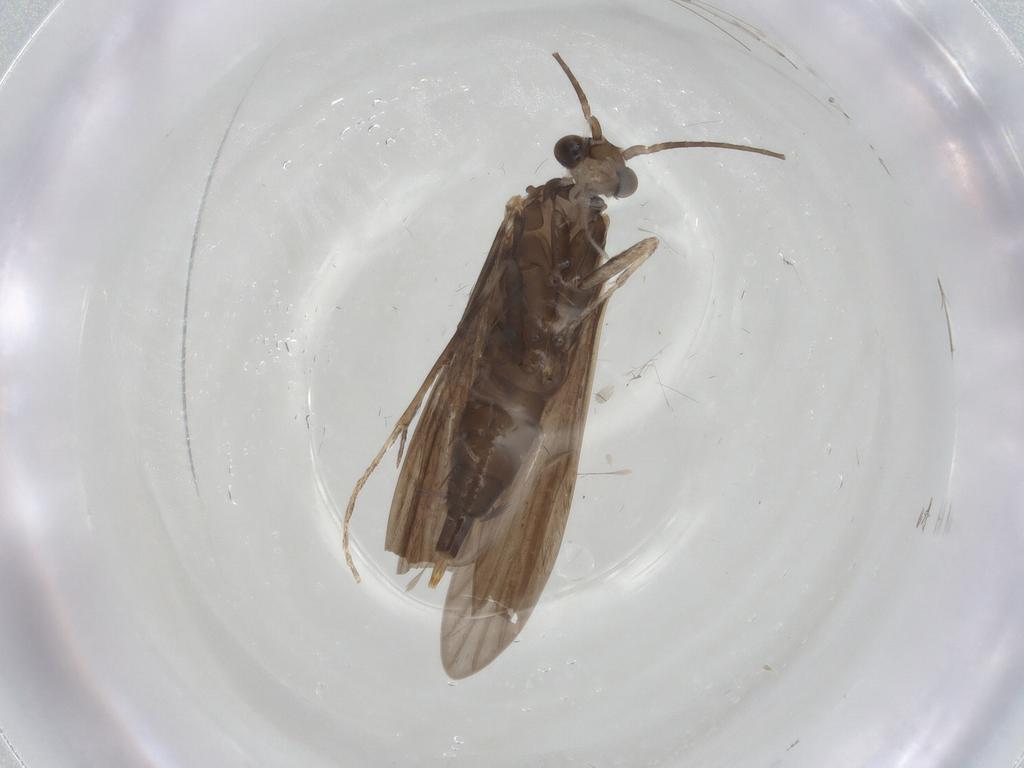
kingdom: Animalia
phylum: Arthropoda
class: Insecta
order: Trichoptera
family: Xiphocentronidae
